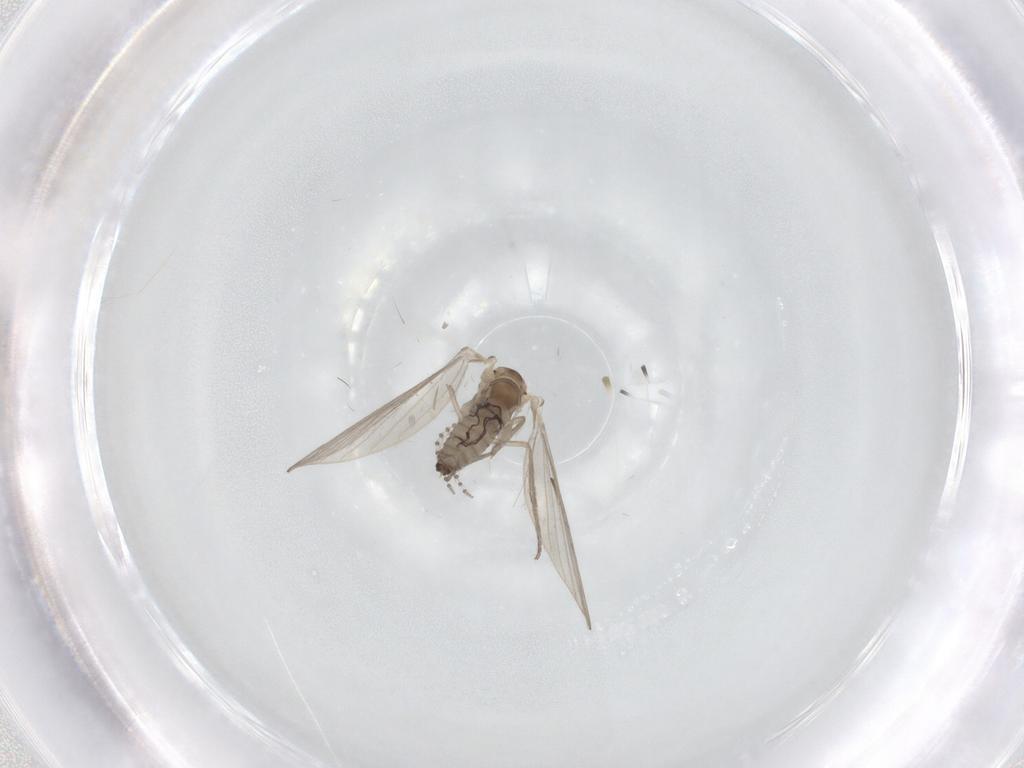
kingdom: Animalia
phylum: Arthropoda
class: Insecta
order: Diptera
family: Psychodidae
